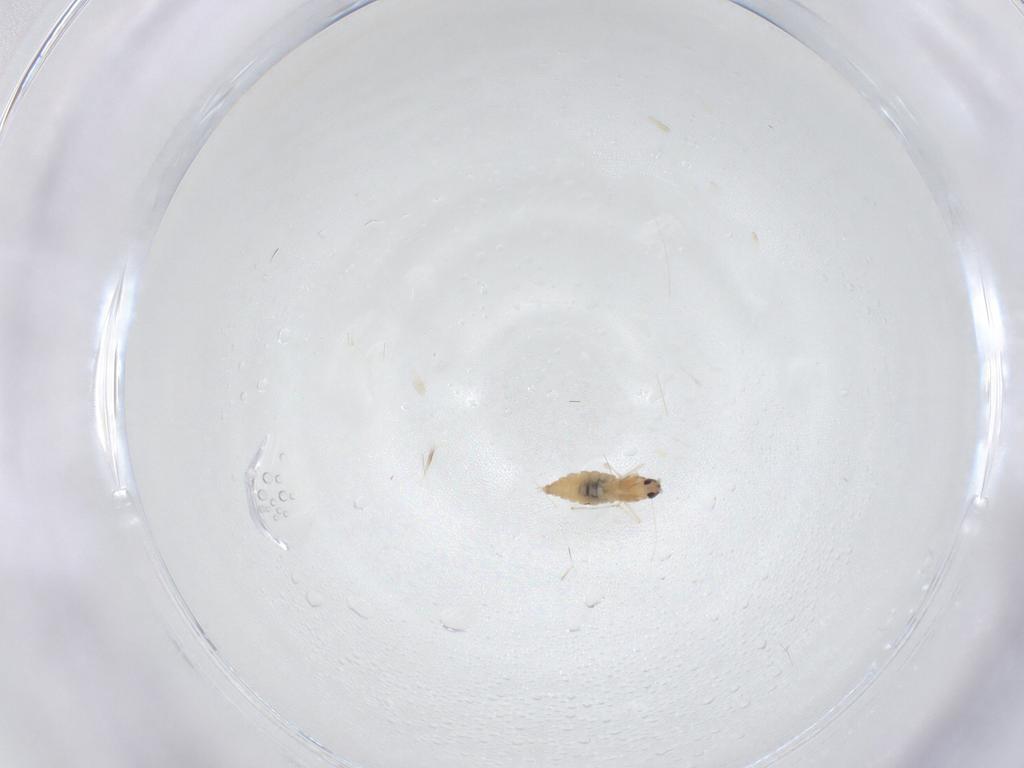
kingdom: Animalia
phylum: Arthropoda
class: Insecta
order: Diptera
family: Cecidomyiidae
